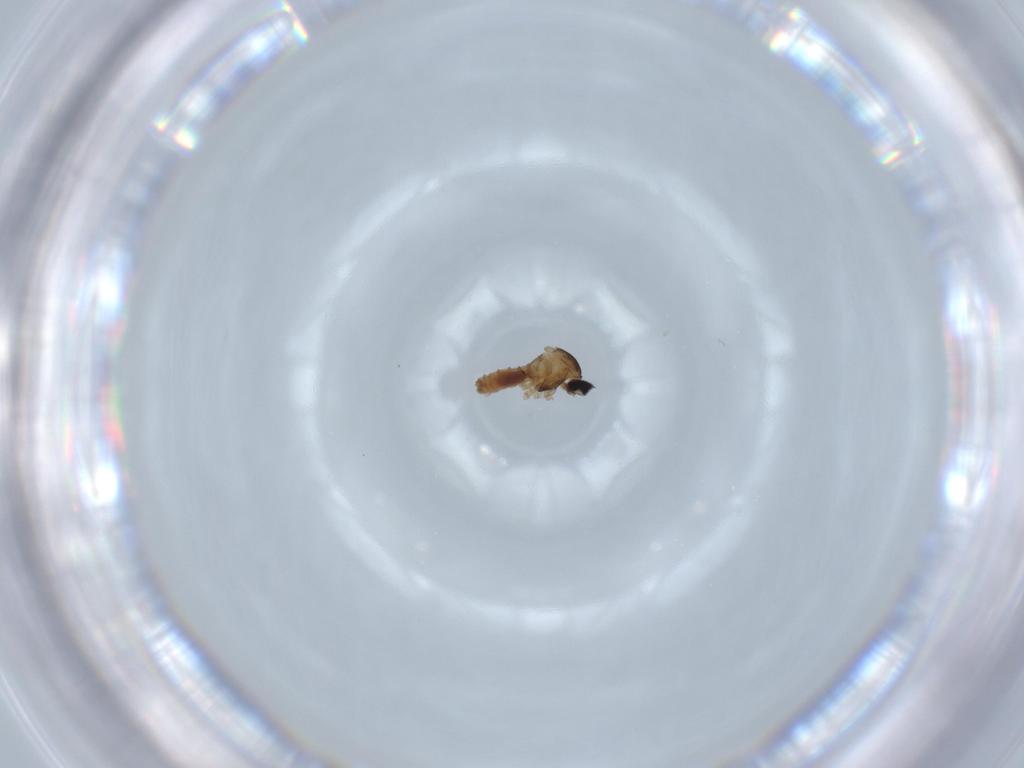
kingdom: Animalia
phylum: Arthropoda
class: Insecta
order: Diptera
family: Cecidomyiidae
